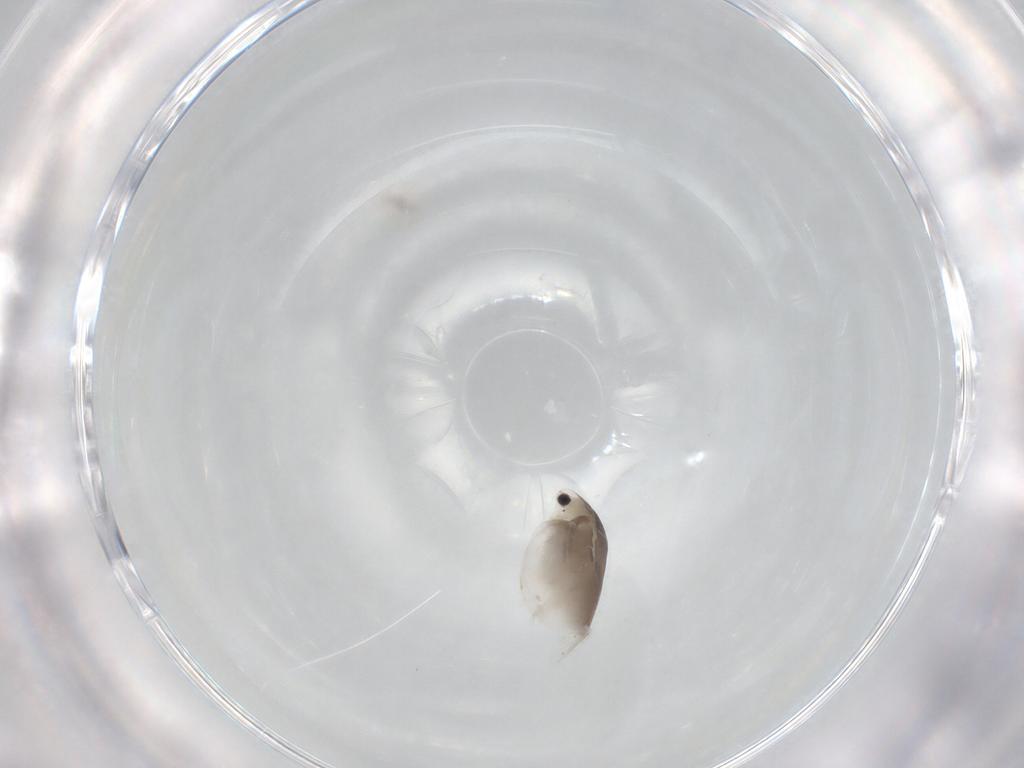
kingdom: Animalia
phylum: Arthropoda
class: Branchiopoda
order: Diplostraca
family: Daphniidae
